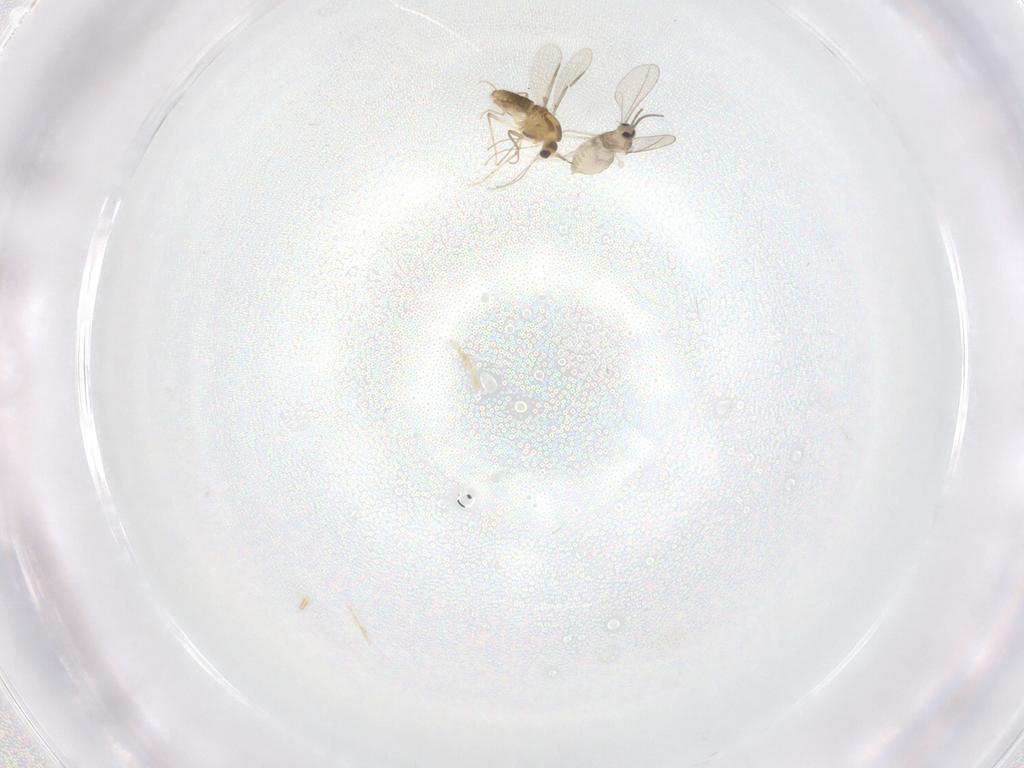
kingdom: Animalia
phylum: Arthropoda
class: Insecta
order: Diptera
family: Cecidomyiidae
